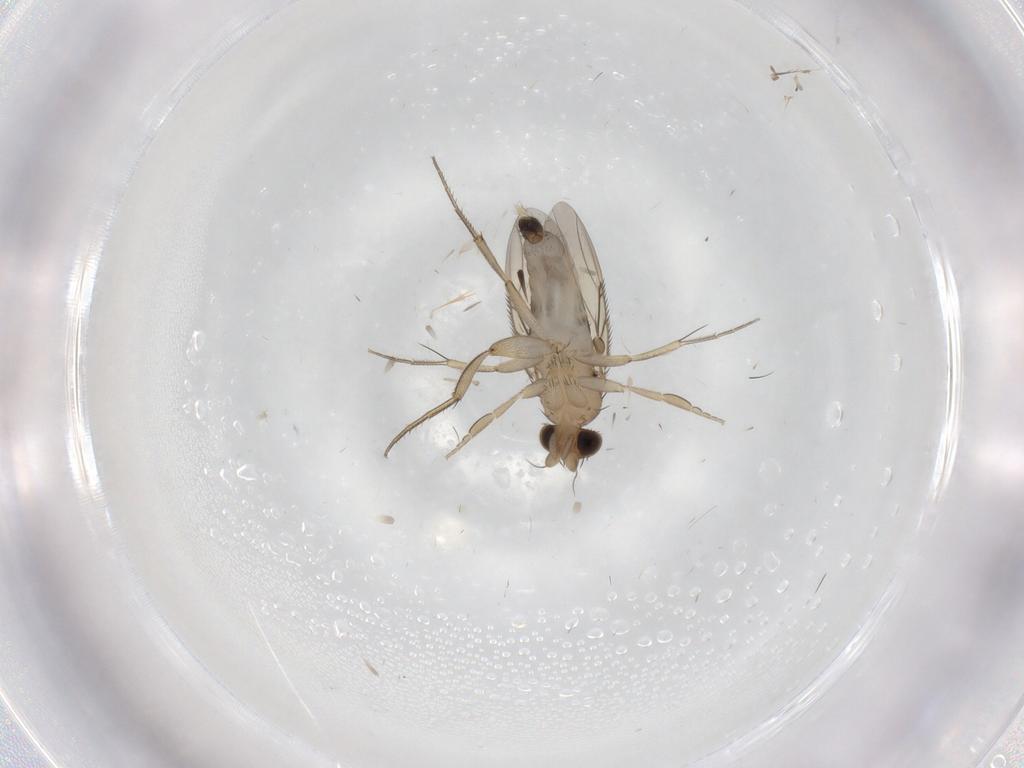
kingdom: Animalia
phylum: Arthropoda
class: Insecta
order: Diptera
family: Phoridae
